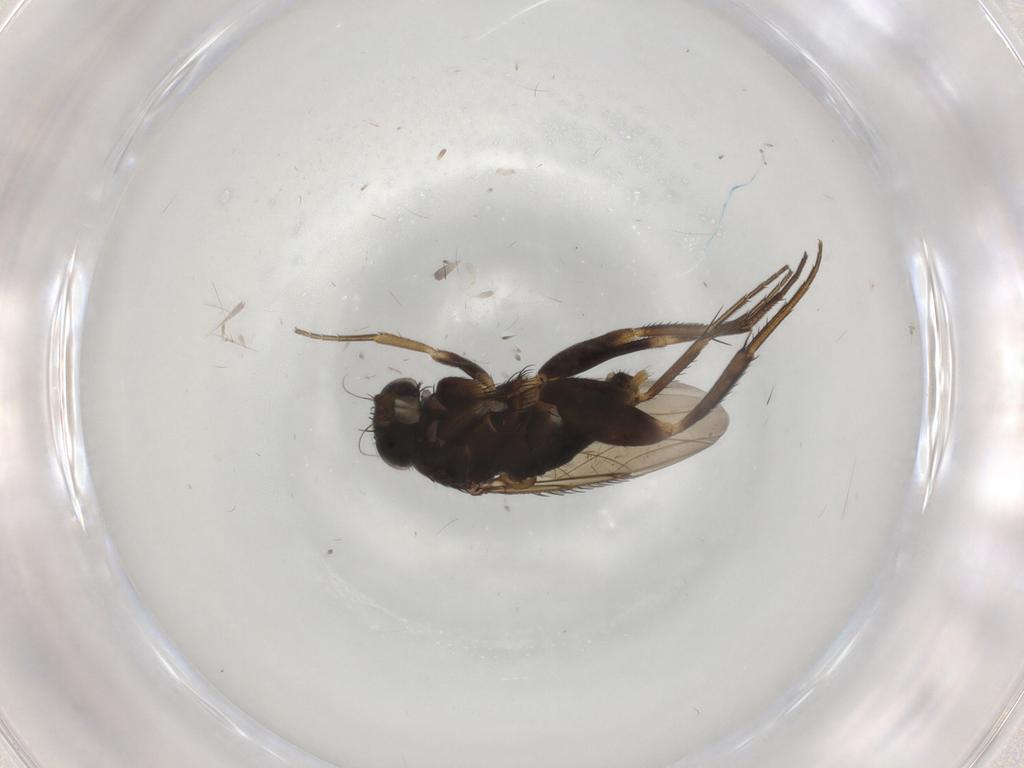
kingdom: Animalia
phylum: Arthropoda
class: Insecta
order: Diptera
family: Phoridae
